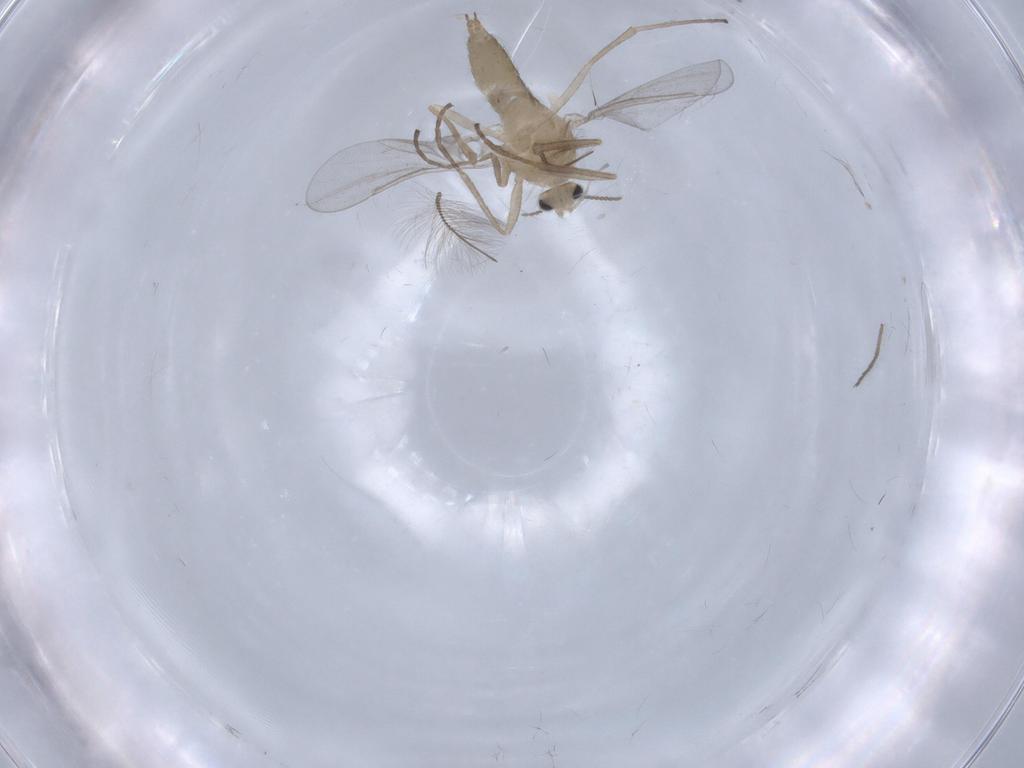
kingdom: Animalia
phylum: Arthropoda
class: Insecta
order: Diptera
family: Cecidomyiidae
